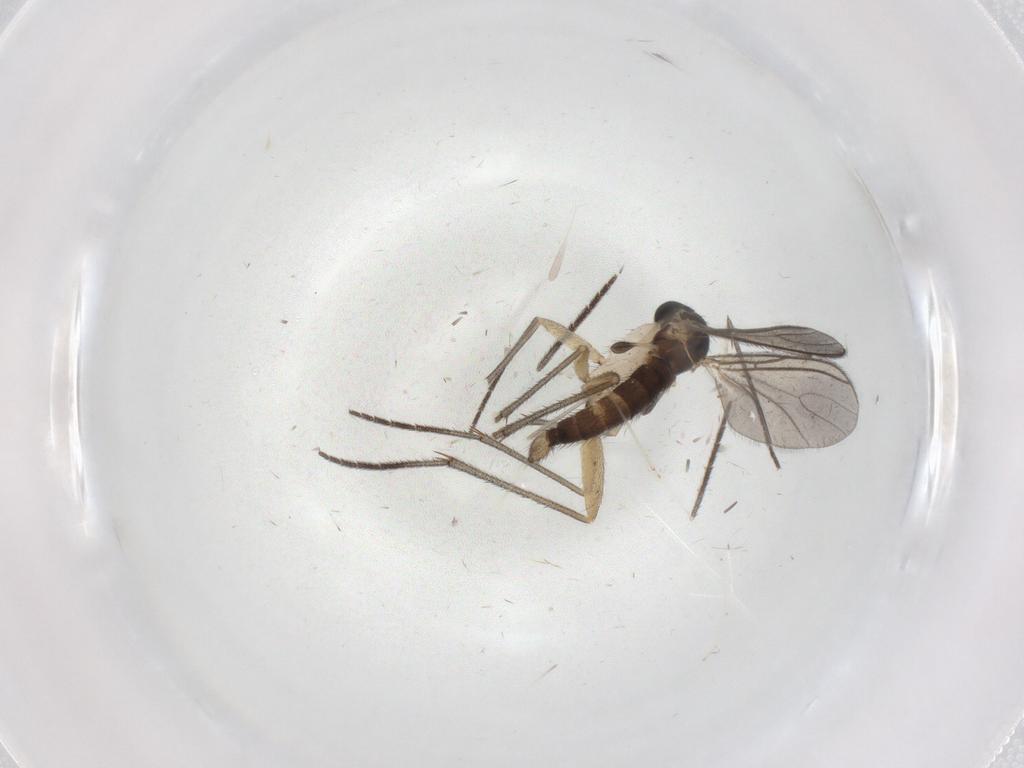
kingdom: Animalia
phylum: Arthropoda
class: Insecta
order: Diptera
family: Sciaridae
